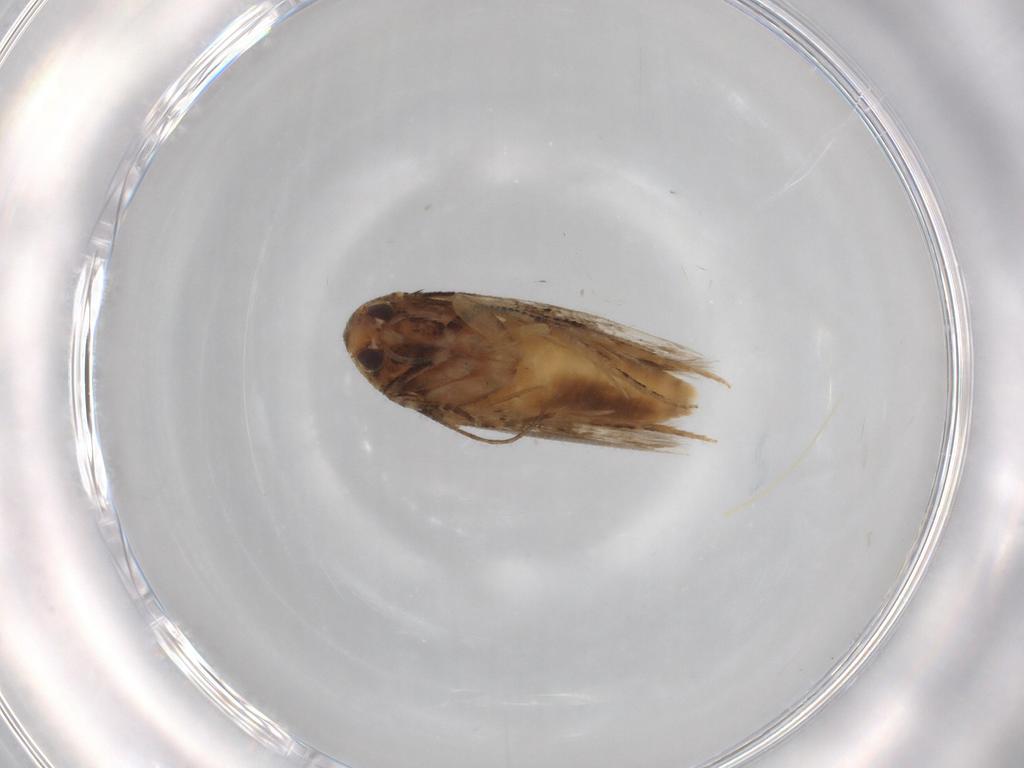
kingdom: Animalia
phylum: Arthropoda
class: Insecta
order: Lepidoptera
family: Cosmopterigidae
